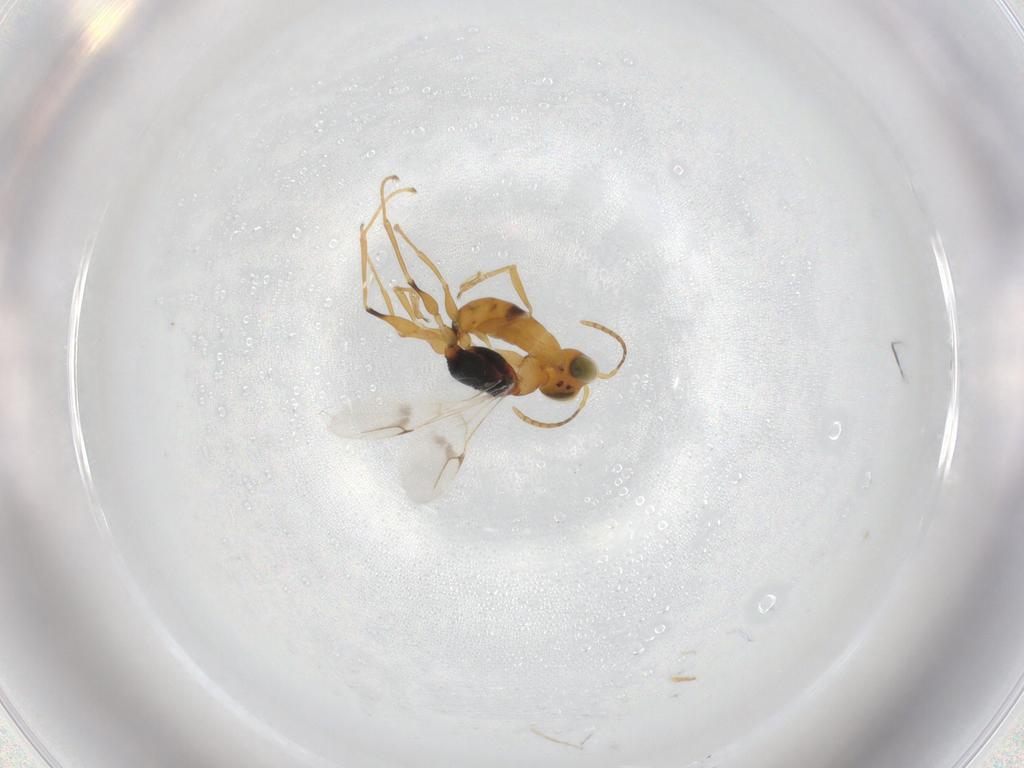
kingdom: Animalia
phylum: Arthropoda
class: Insecta
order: Hymenoptera
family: Dryinidae
